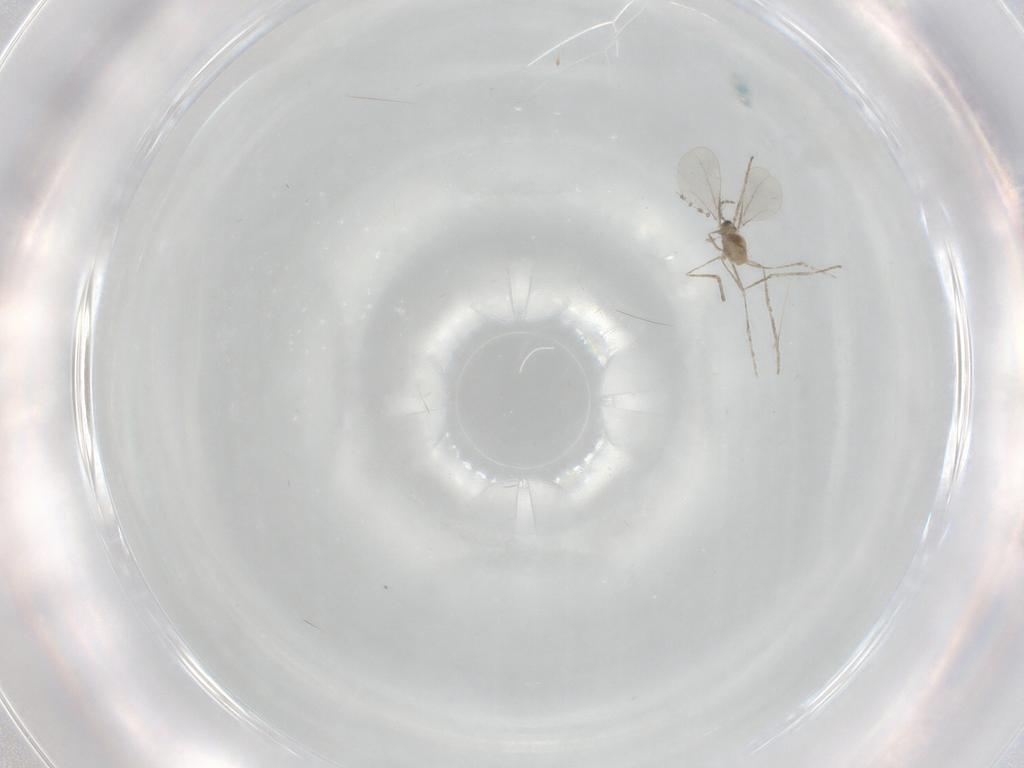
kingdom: Animalia
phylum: Arthropoda
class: Insecta
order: Diptera
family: Cecidomyiidae
